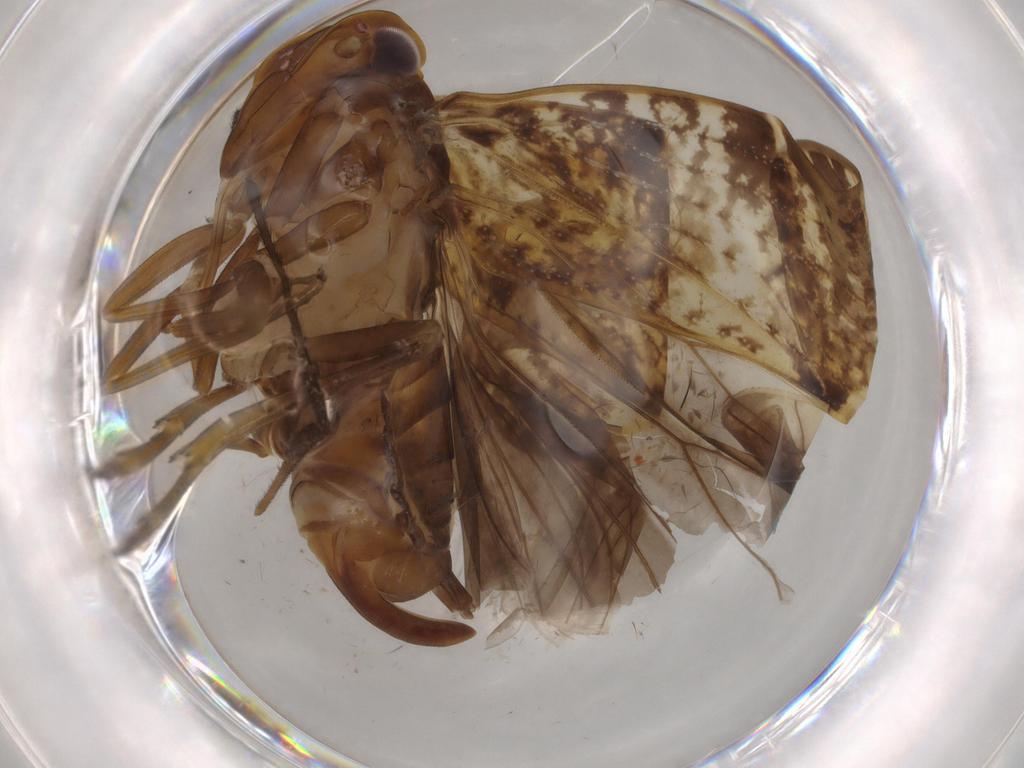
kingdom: Animalia
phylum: Arthropoda
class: Insecta
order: Hemiptera
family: Cixiidae
